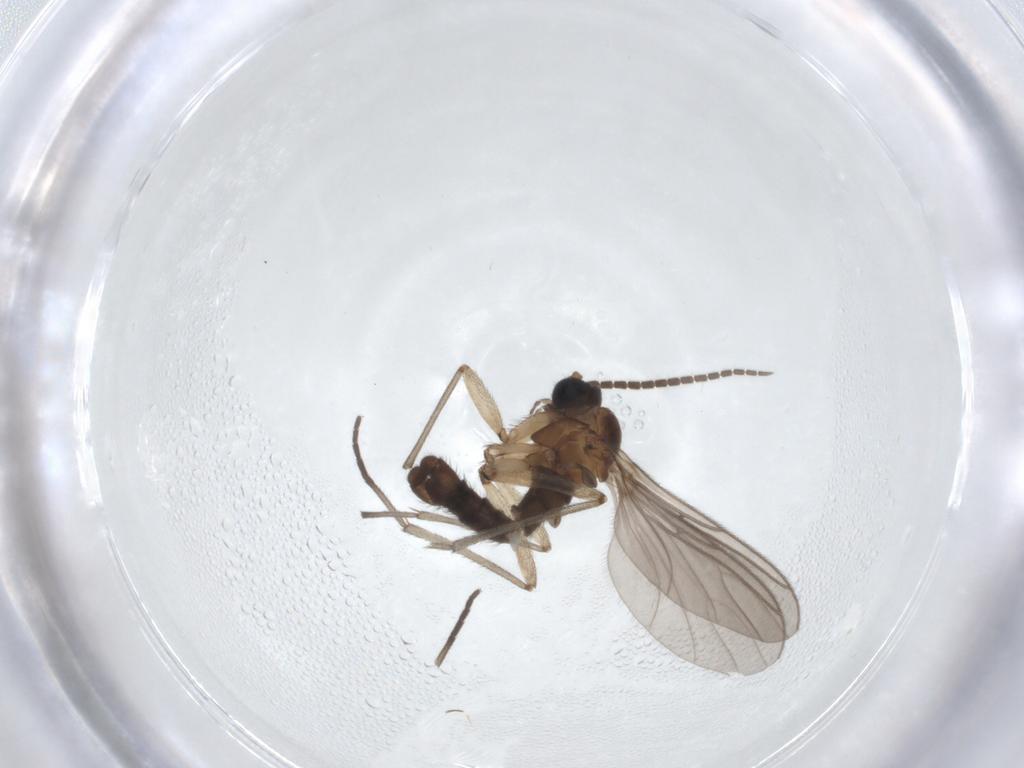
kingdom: Animalia
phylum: Arthropoda
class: Insecta
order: Diptera
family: Sciaridae
